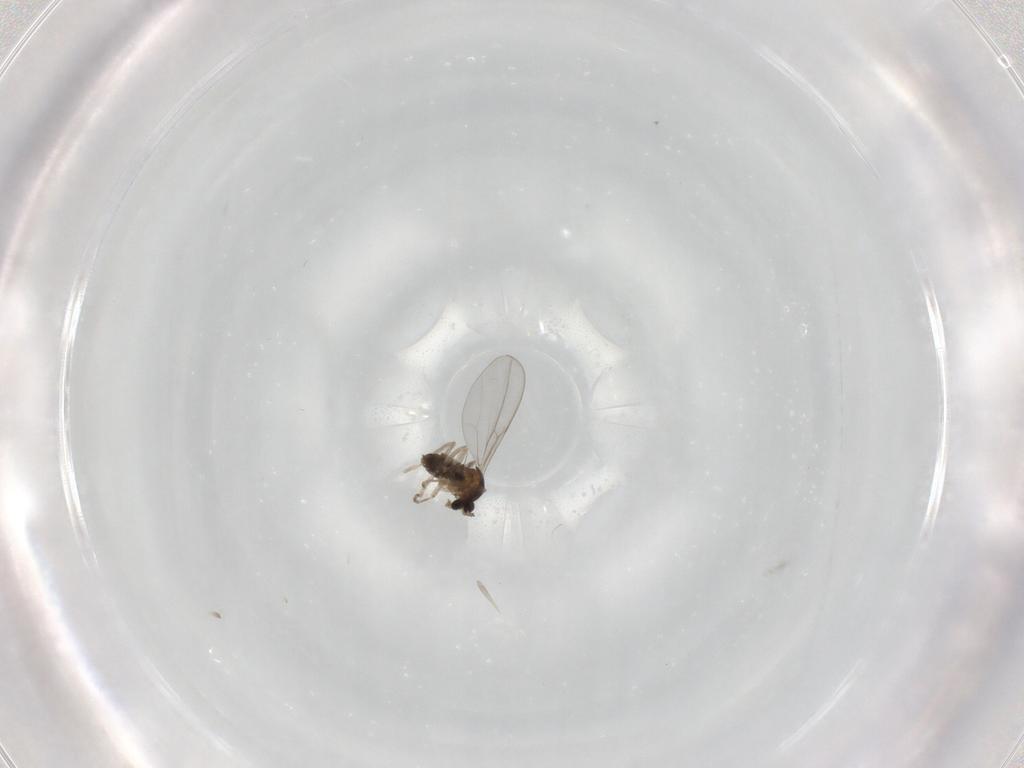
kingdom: Animalia
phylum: Arthropoda
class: Insecta
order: Diptera
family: Cecidomyiidae
